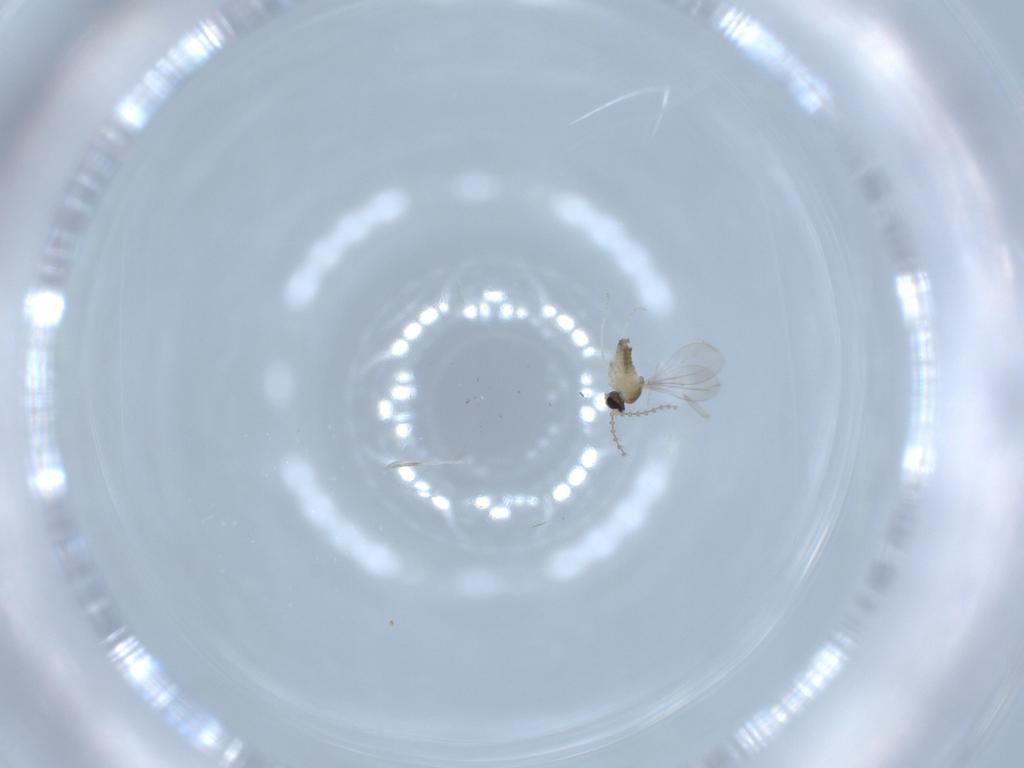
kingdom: Animalia
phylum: Arthropoda
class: Insecta
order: Diptera
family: Cecidomyiidae
